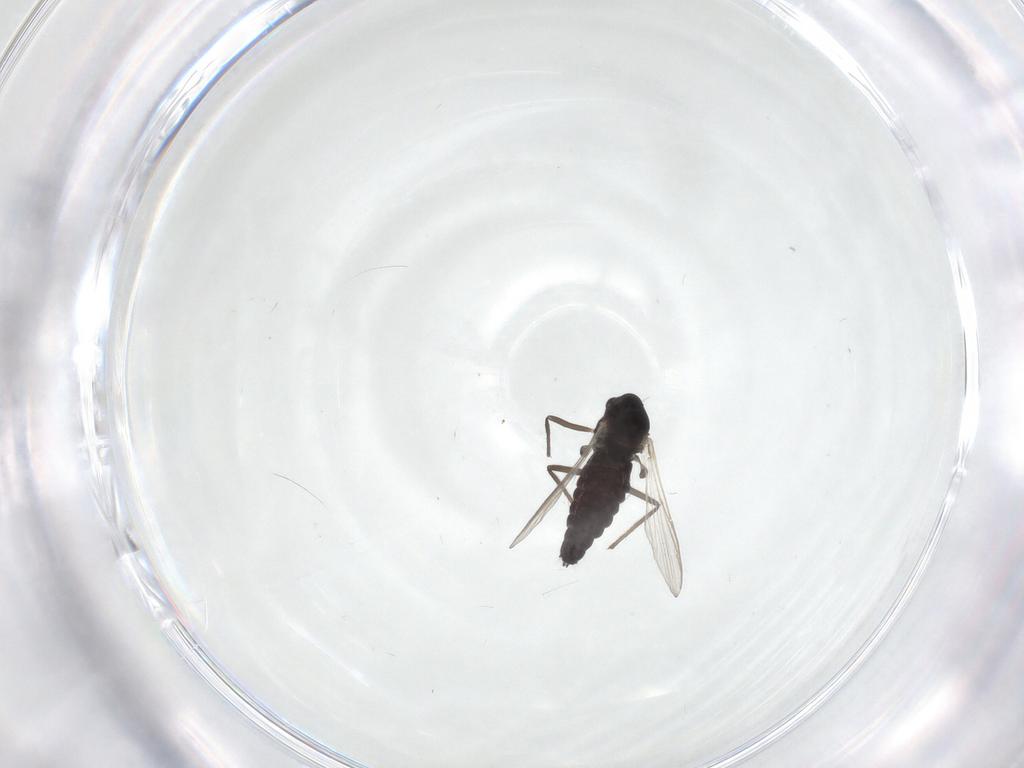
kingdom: Animalia
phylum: Arthropoda
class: Insecta
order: Diptera
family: Chironomidae
